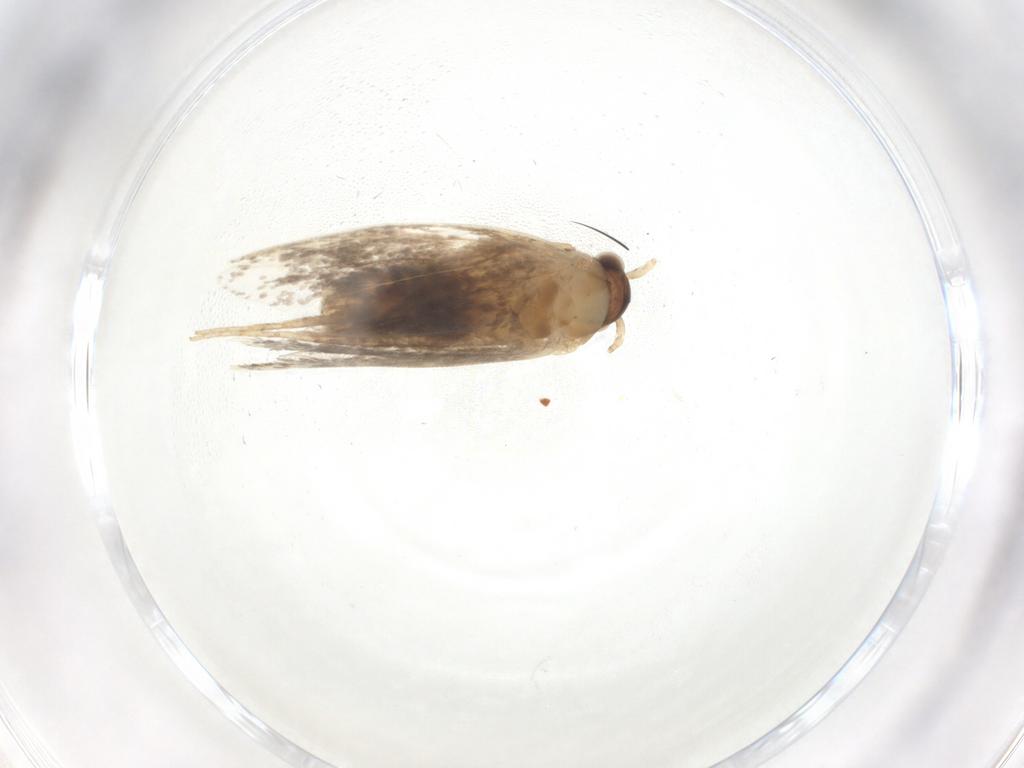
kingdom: Animalia
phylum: Arthropoda
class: Insecta
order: Lepidoptera
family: Dryadaulidae
